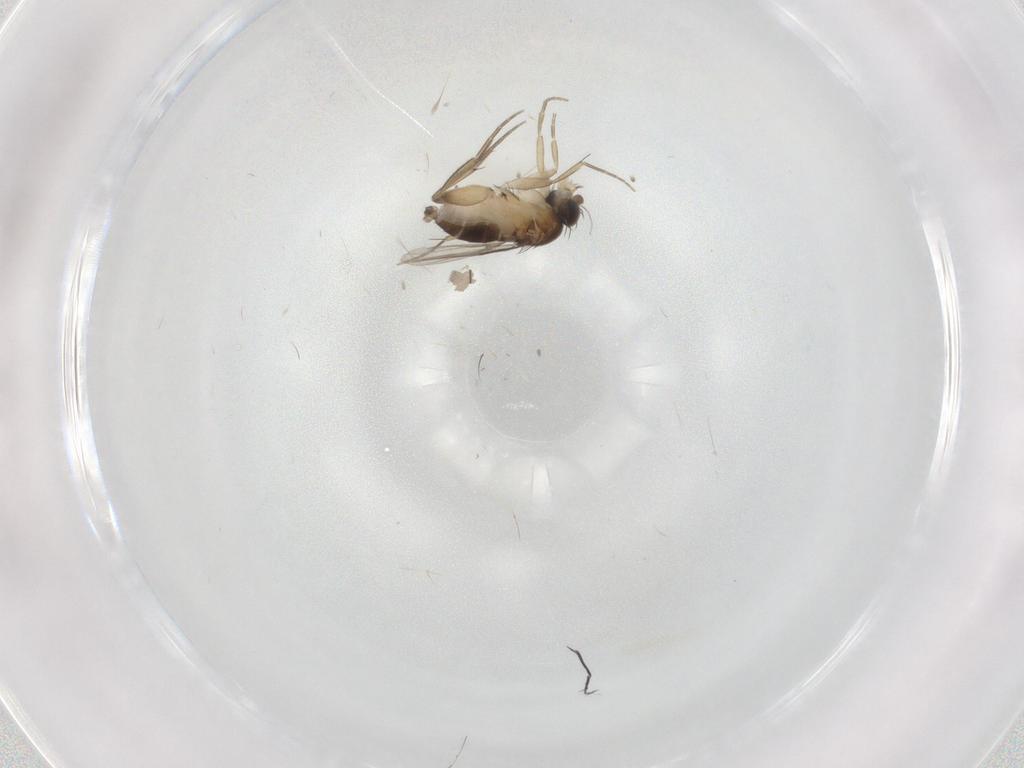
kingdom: Animalia
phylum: Arthropoda
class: Insecta
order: Diptera
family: Phoridae
